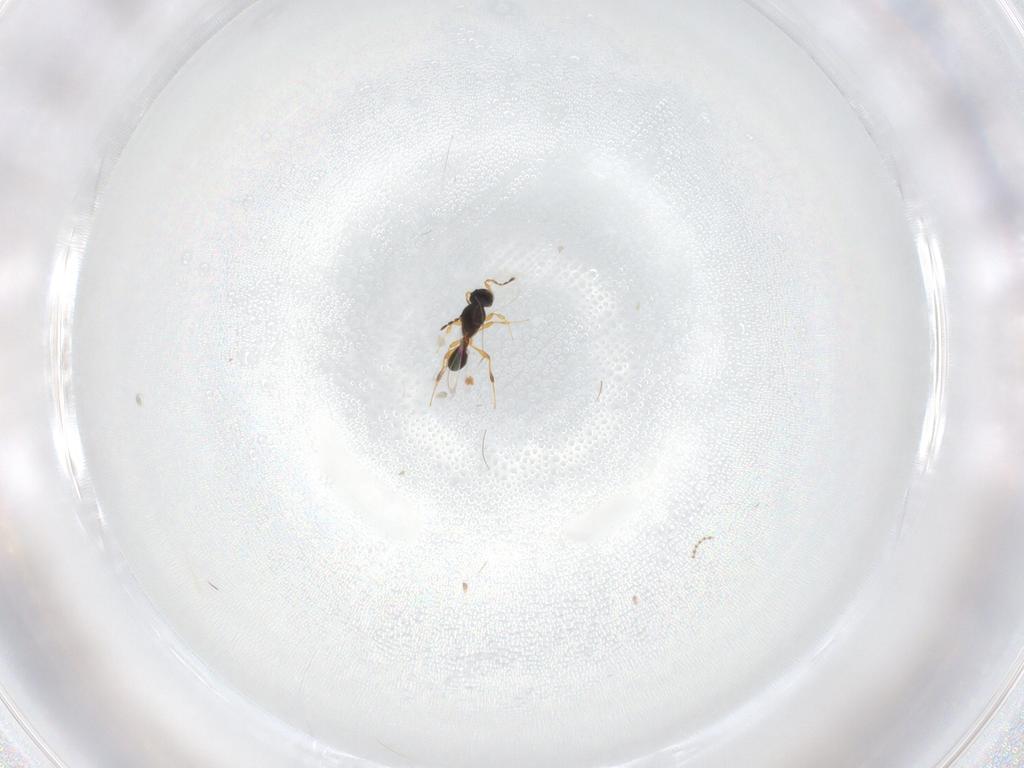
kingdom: Animalia
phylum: Arthropoda
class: Insecta
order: Hymenoptera
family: Platygastridae
